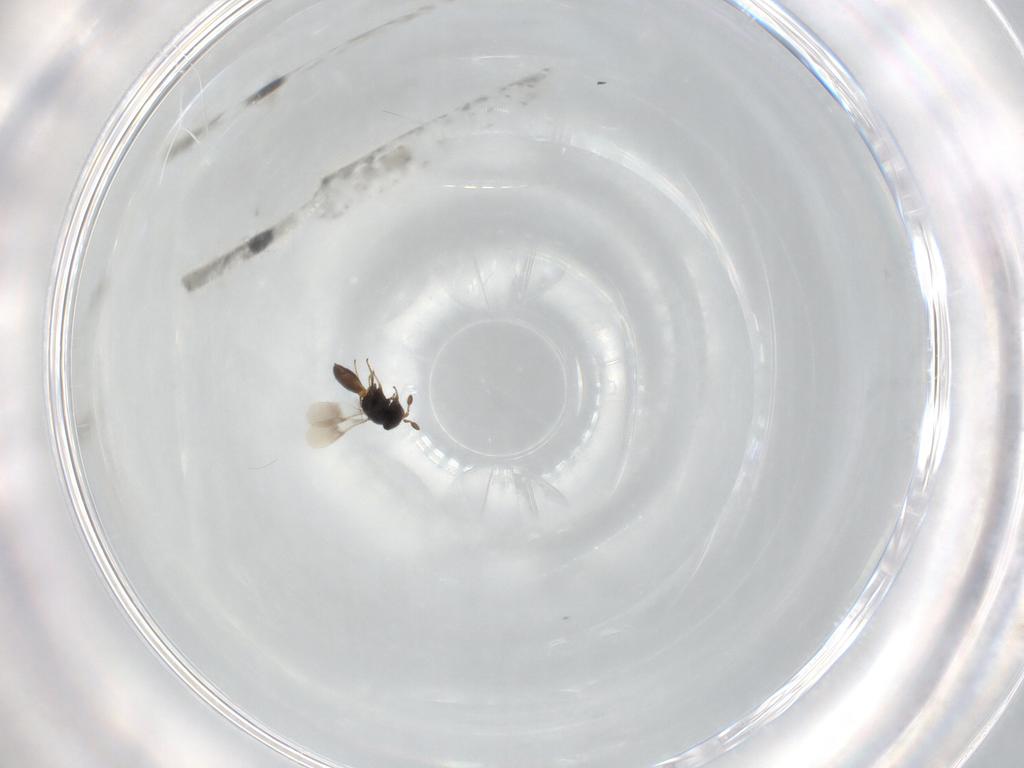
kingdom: Animalia
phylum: Arthropoda
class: Insecta
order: Hymenoptera
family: Scelionidae
